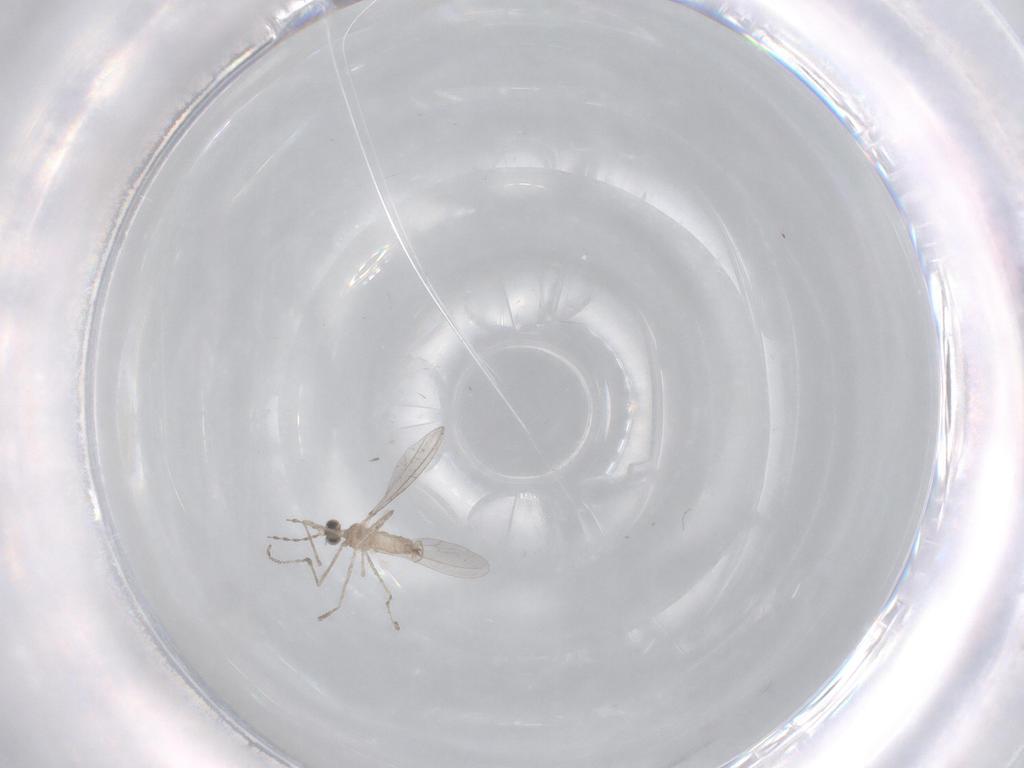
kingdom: Animalia
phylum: Arthropoda
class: Insecta
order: Diptera
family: Cecidomyiidae
